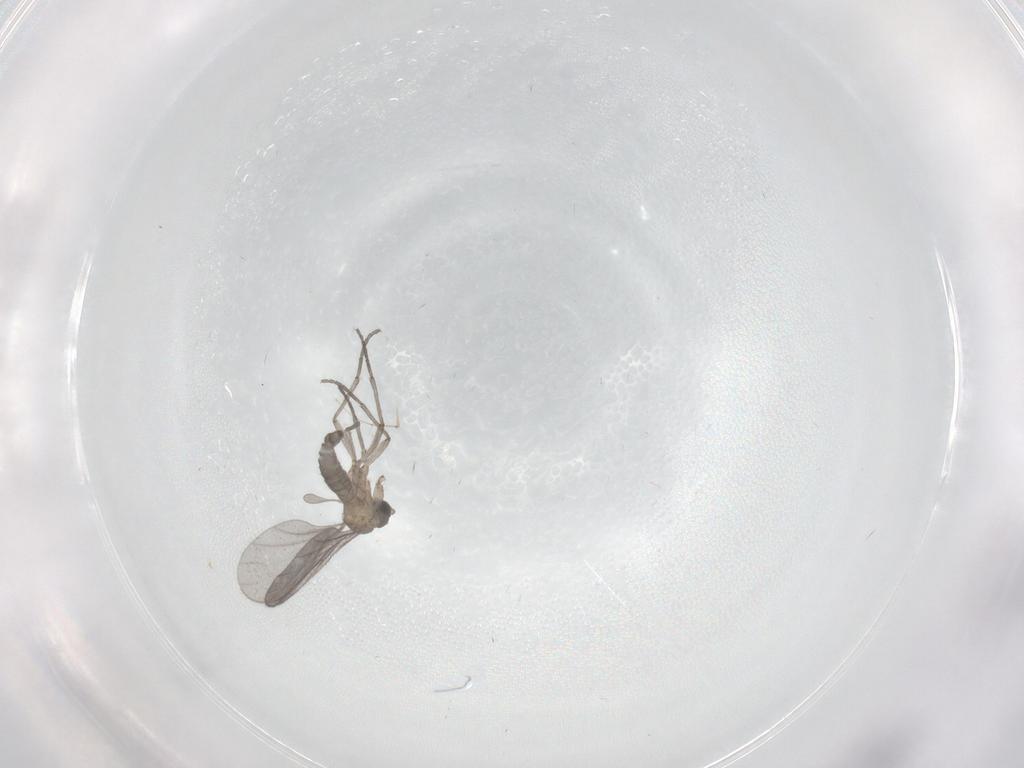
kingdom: Animalia
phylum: Arthropoda
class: Insecta
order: Diptera
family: Sciaridae
